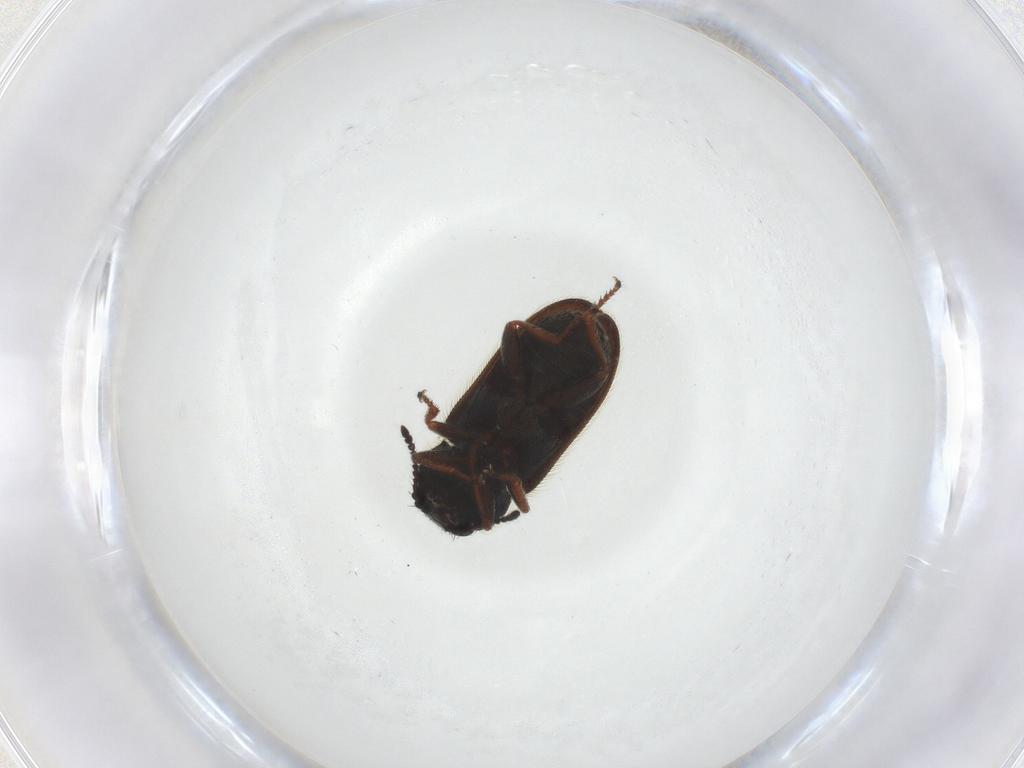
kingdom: Animalia
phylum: Arthropoda
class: Insecta
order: Coleoptera
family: Melyridae
